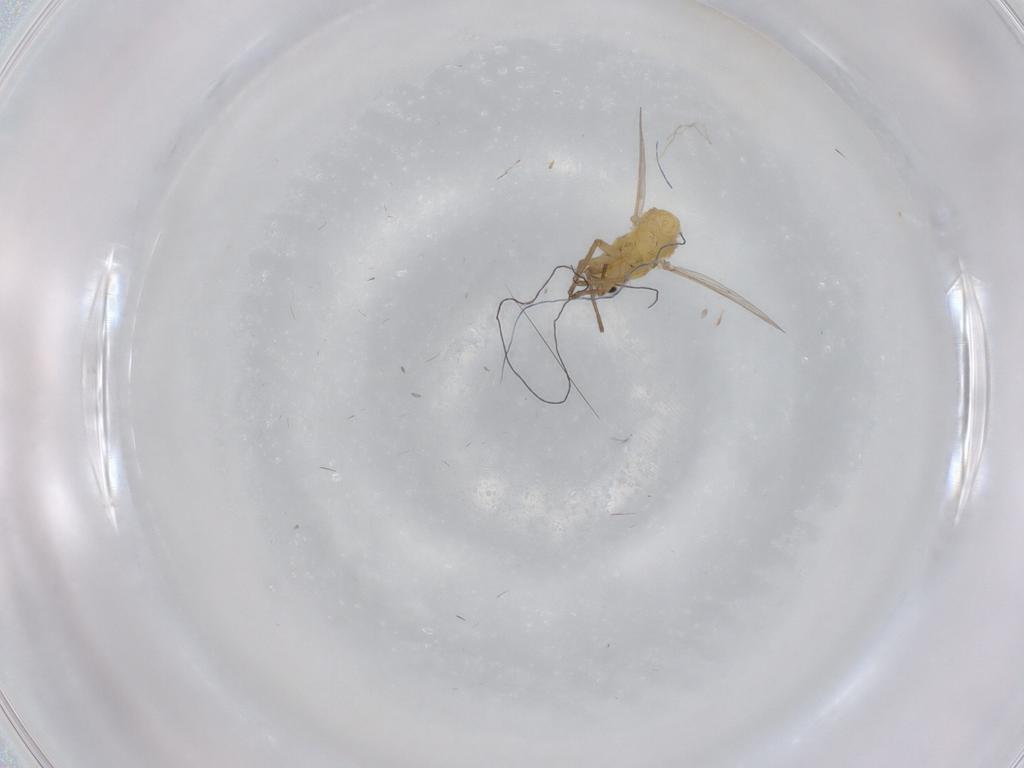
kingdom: Animalia
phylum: Arthropoda
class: Insecta
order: Diptera
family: Chironomidae
